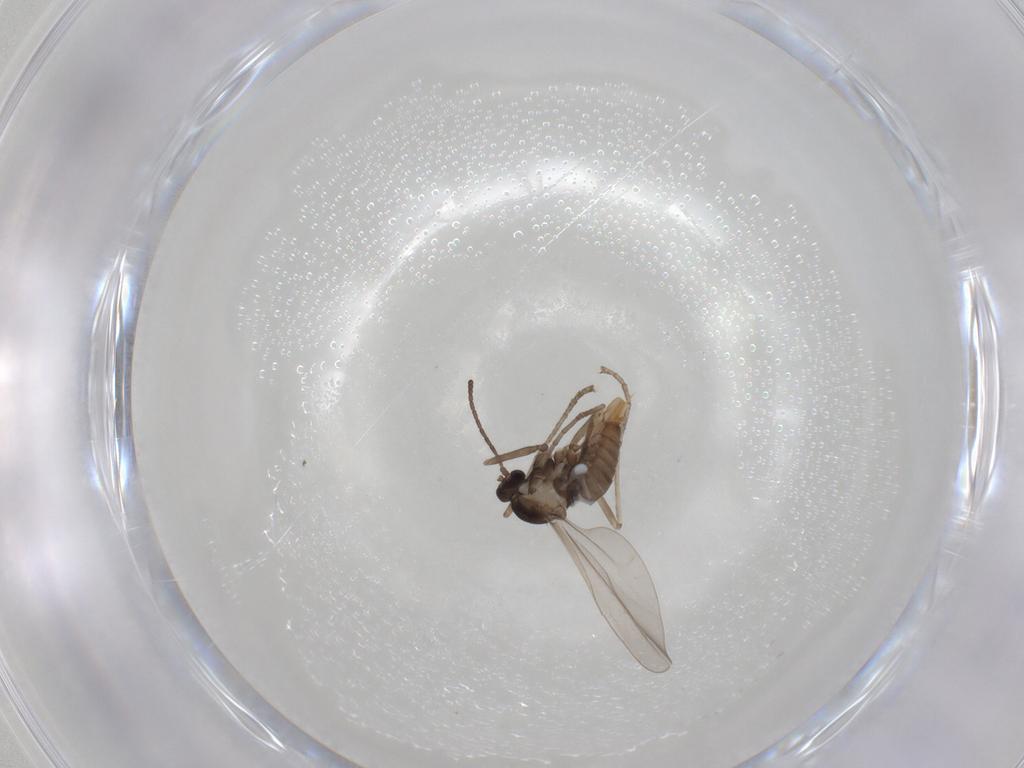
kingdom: Animalia
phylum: Arthropoda
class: Insecta
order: Diptera
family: Cecidomyiidae
